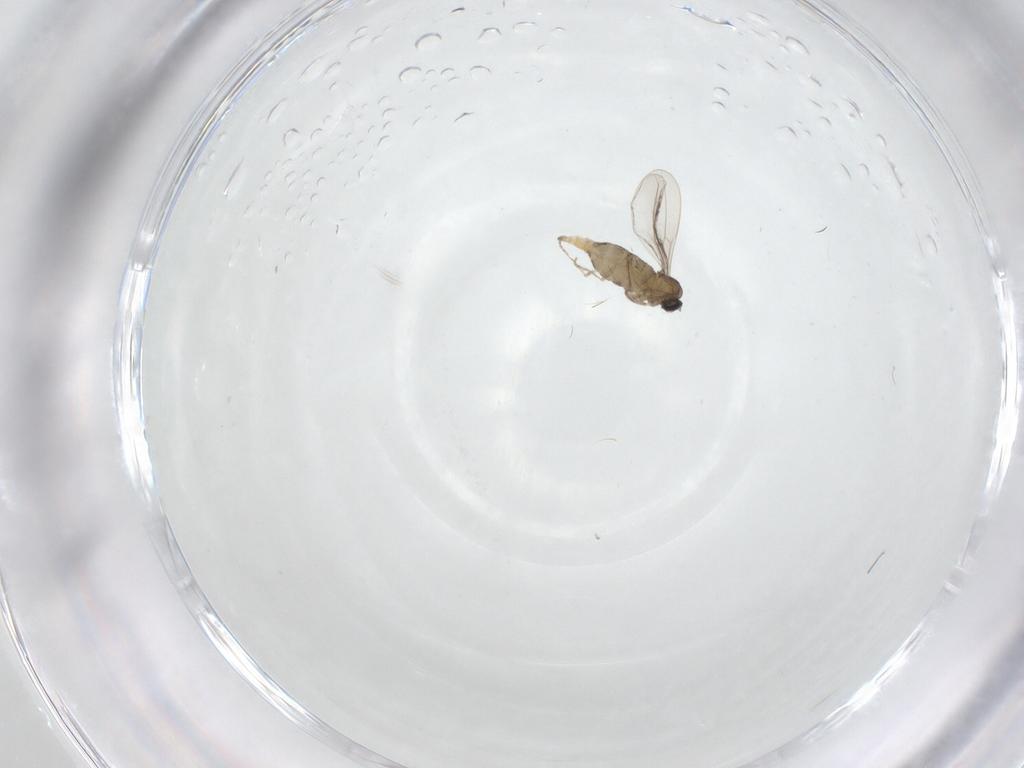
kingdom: Animalia
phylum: Arthropoda
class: Insecta
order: Diptera
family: Cecidomyiidae
